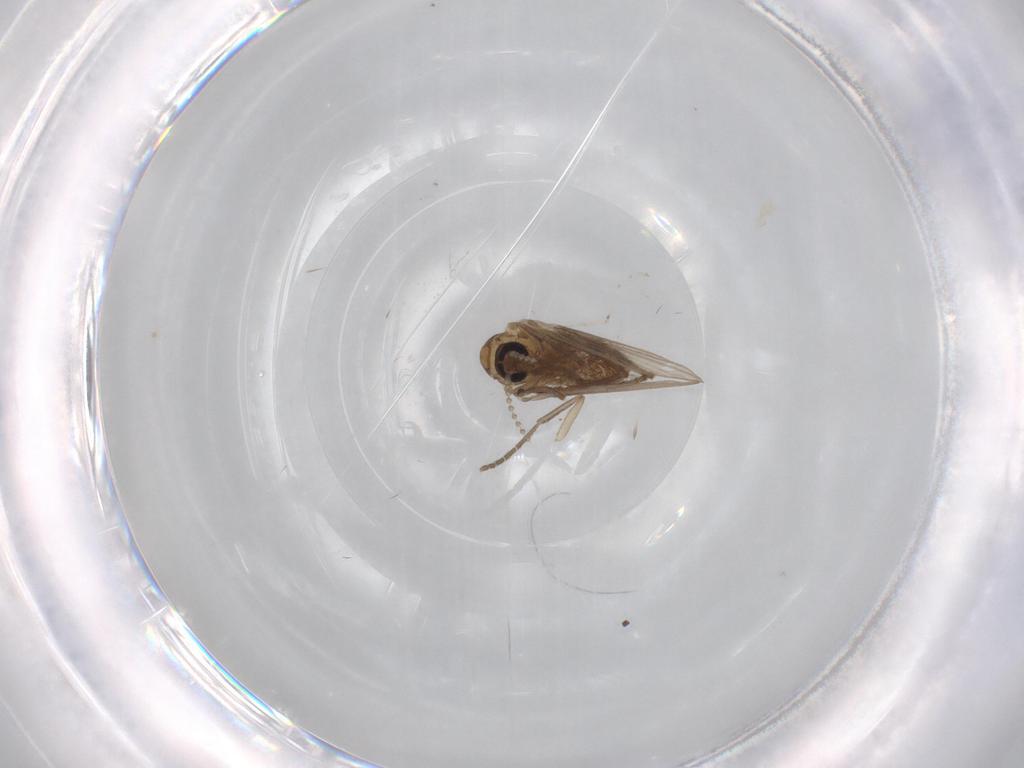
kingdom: Animalia
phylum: Arthropoda
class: Insecta
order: Diptera
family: Psychodidae
